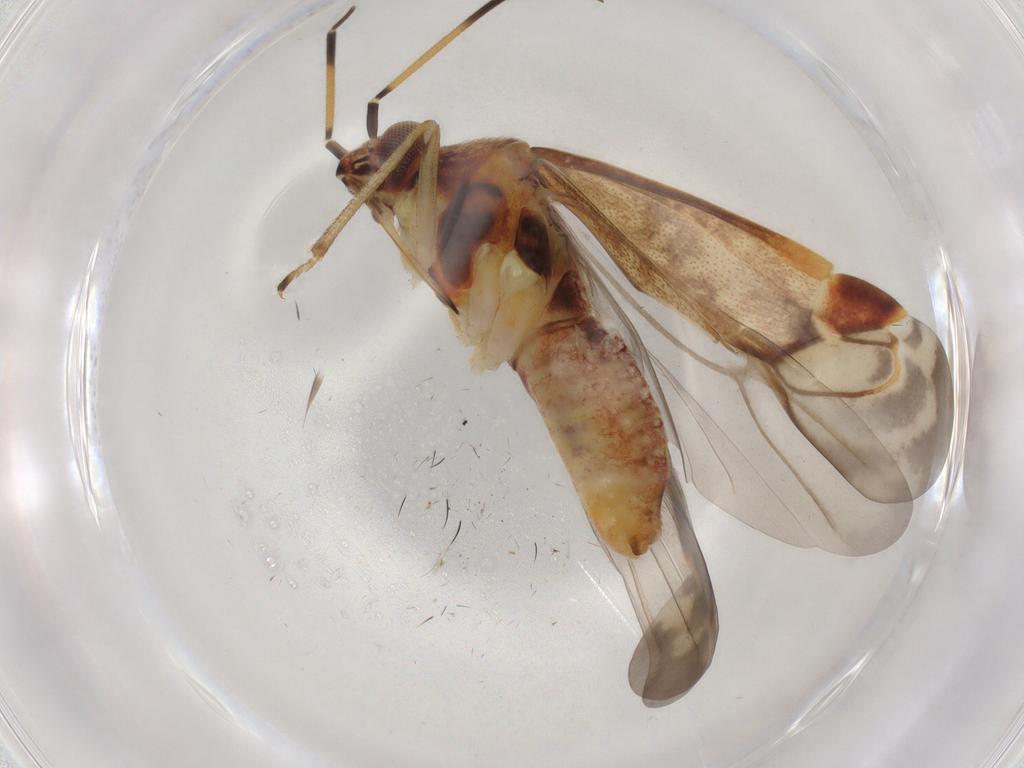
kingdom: Animalia
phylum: Arthropoda
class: Insecta
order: Hemiptera
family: Miridae
